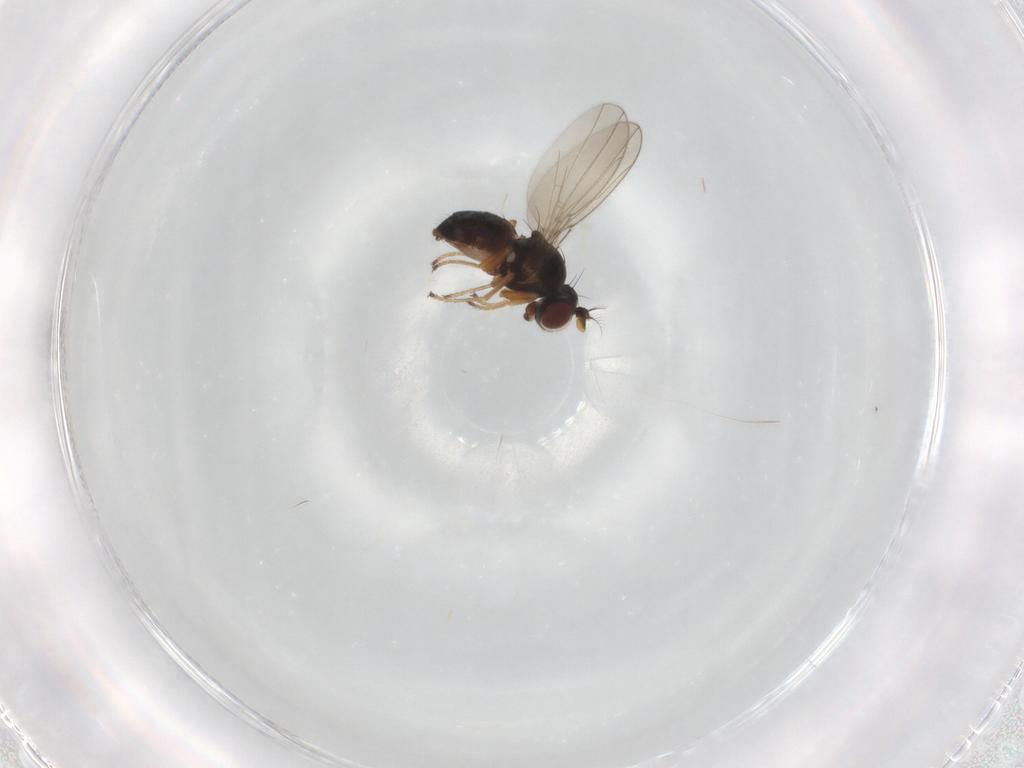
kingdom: Animalia
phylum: Arthropoda
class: Insecta
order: Diptera
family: Ephydridae
